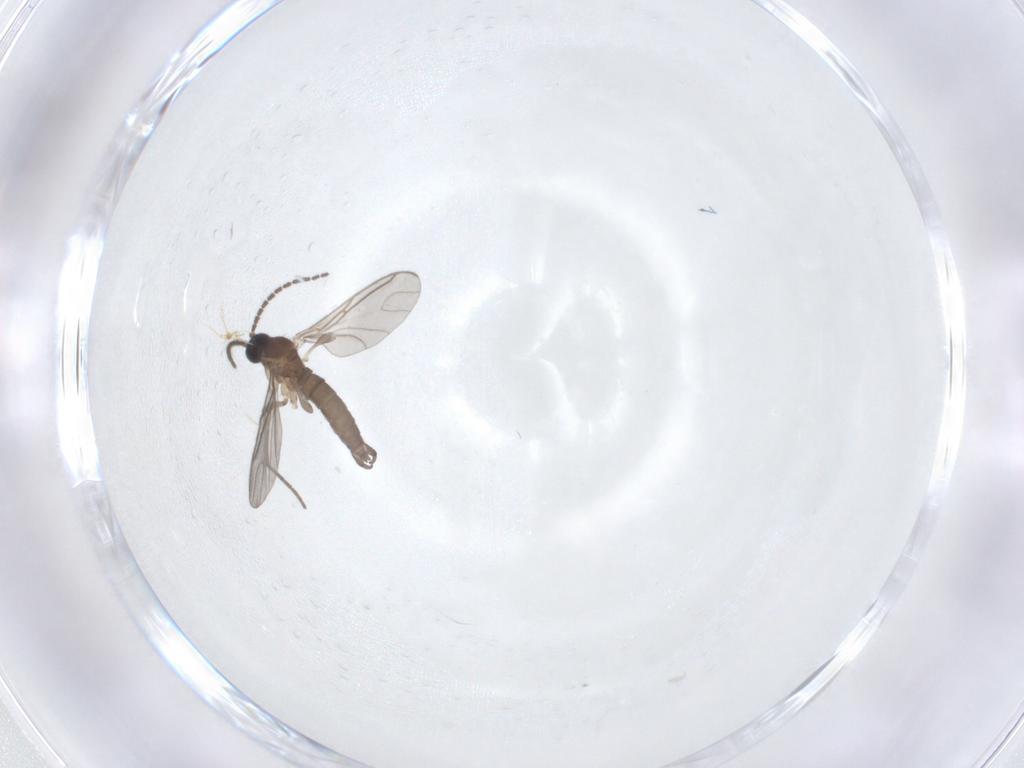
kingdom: Animalia
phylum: Arthropoda
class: Insecta
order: Diptera
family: Sciaridae
